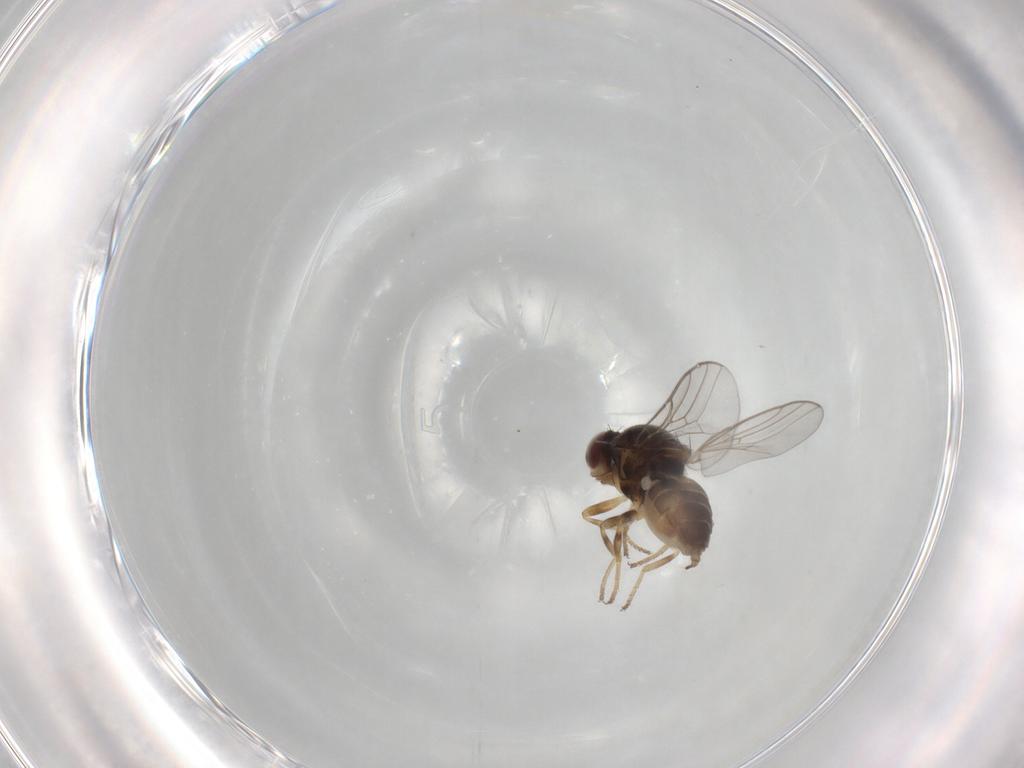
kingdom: Animalia
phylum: Arthropoda
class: Insecta
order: Diptera
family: Chloropidae
